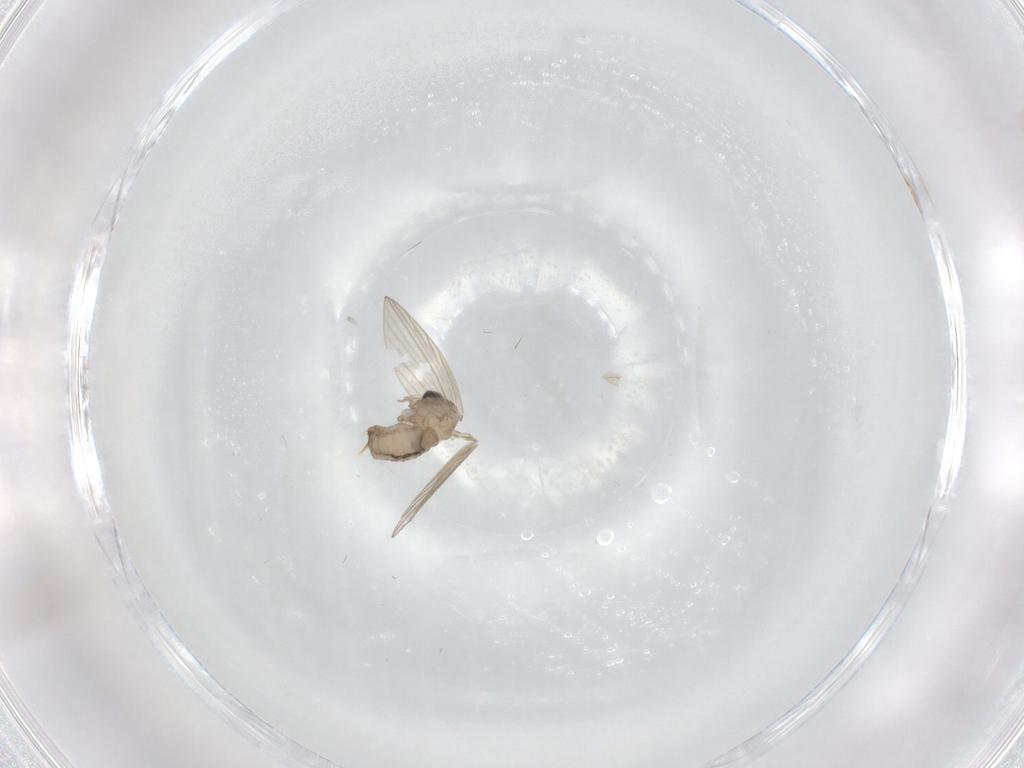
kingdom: Animalia
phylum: Arthropoda
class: Insecta
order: Diptera
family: Psychodidae
